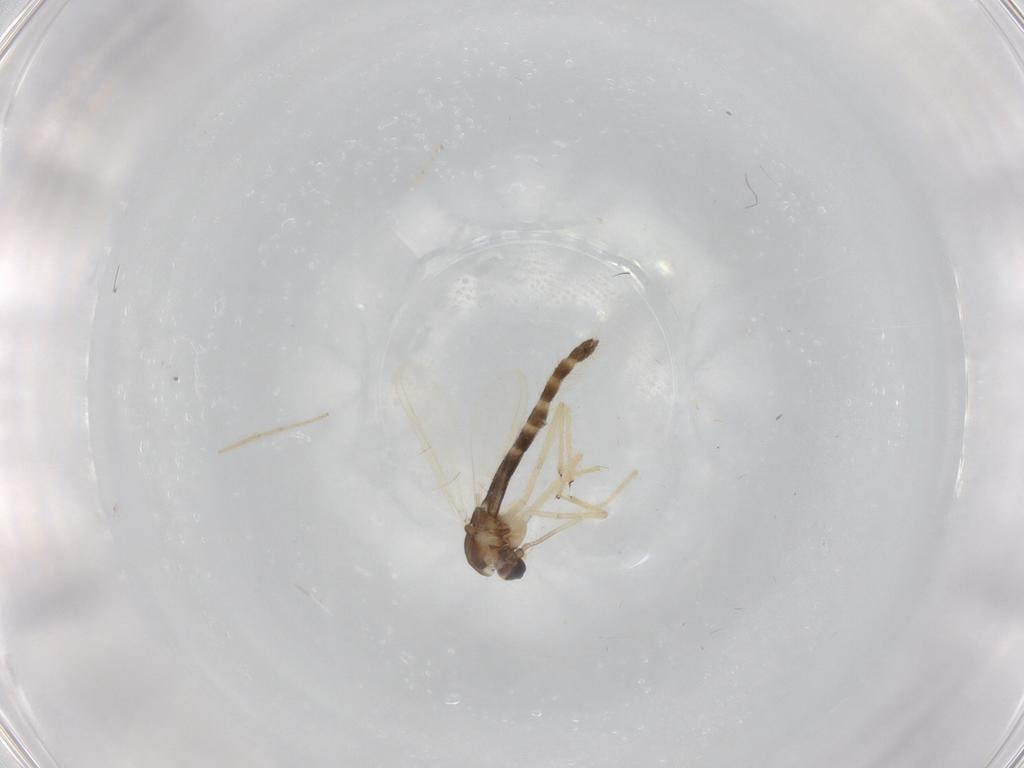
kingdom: Animalia
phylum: Arthropoda
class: Insecta
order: Diptera
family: Chironomidae
